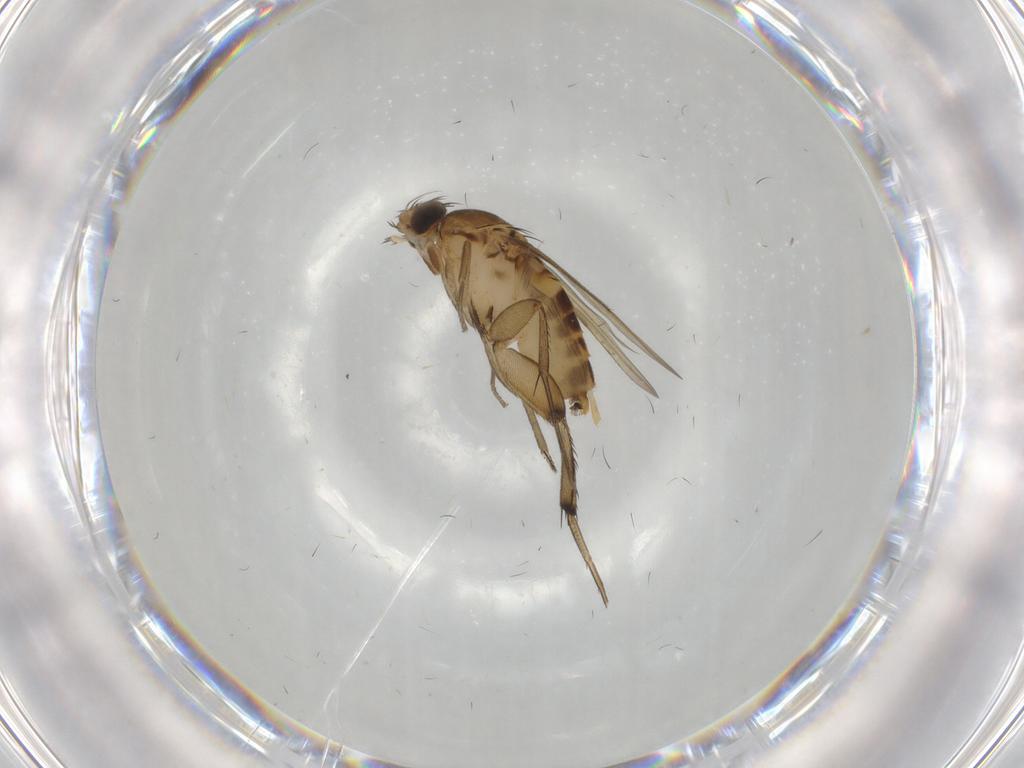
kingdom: Animalia
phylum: Arthropoda
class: Insecta
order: Diptera
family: Phoridae
